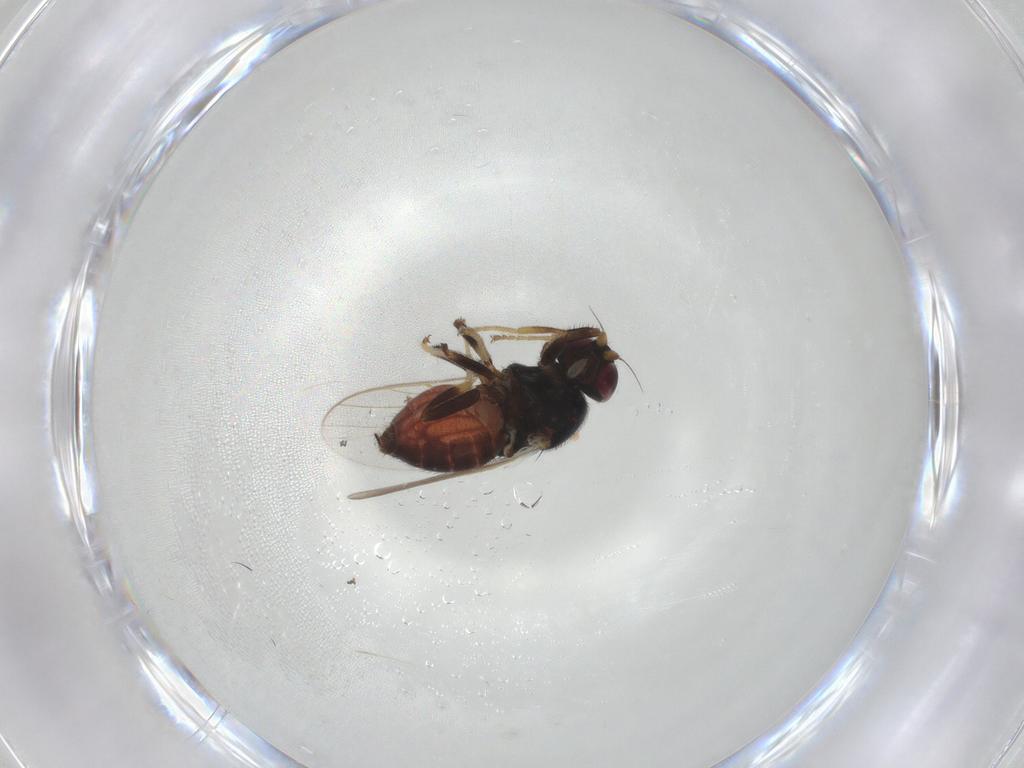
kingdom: Animalia
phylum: Arthropoda
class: Insecta
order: Diptera
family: Chloropidae
